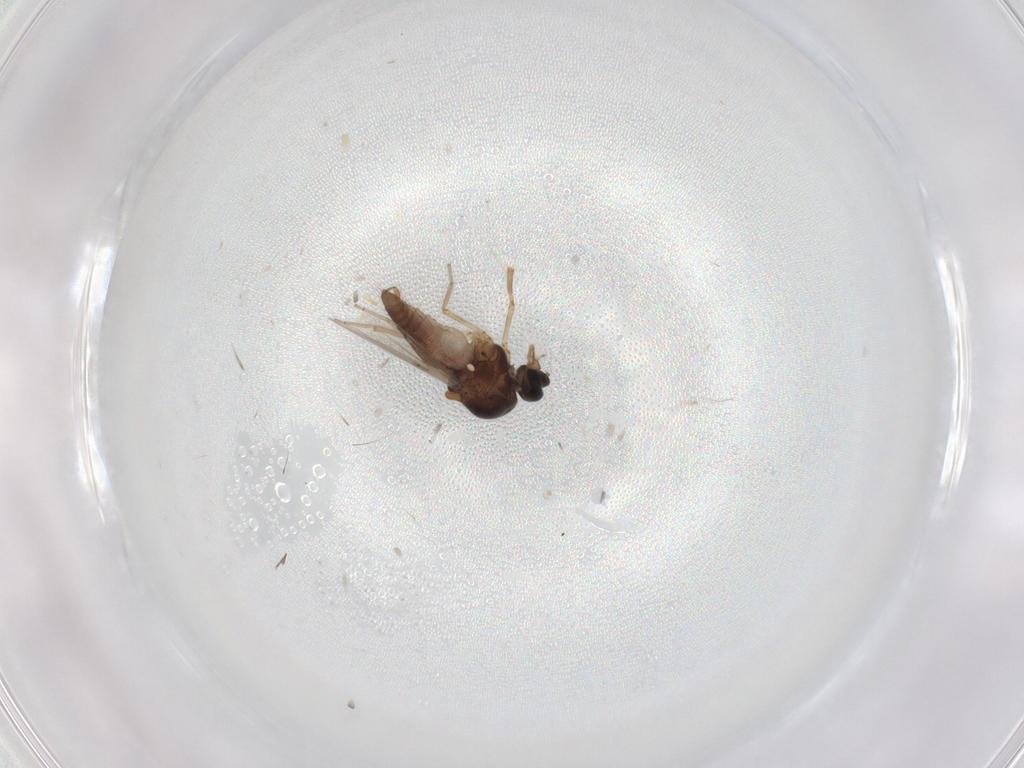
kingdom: Animalia
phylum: Arthropoda
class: Insecta
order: Diptera
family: Ceratopogonidae
